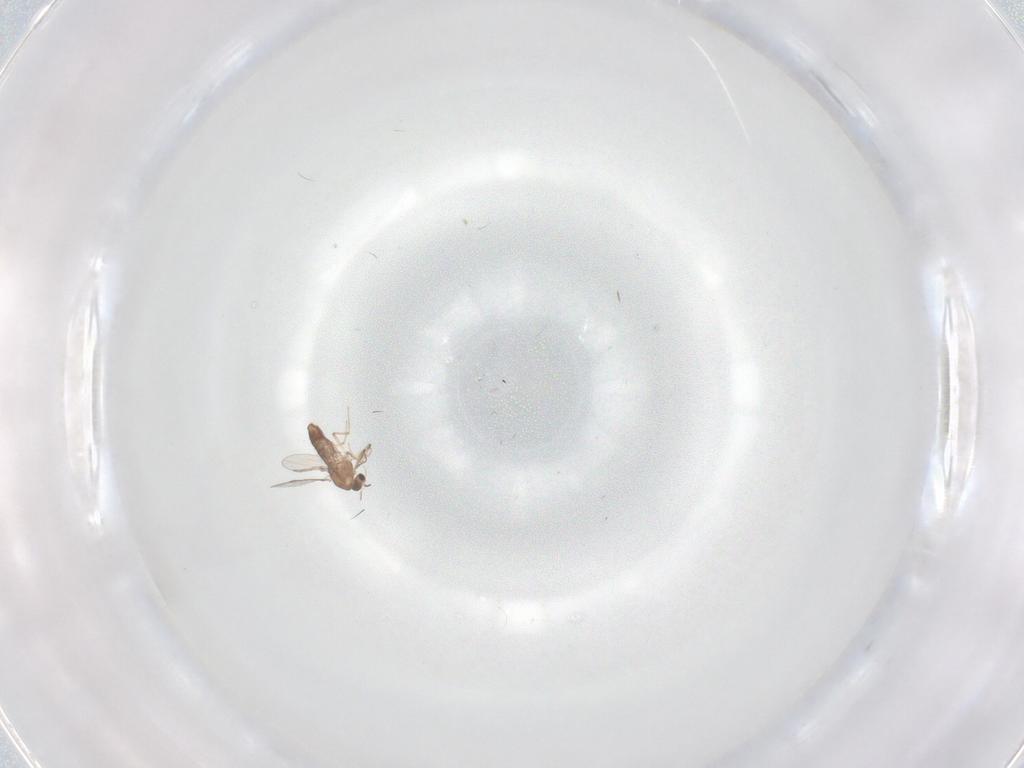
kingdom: Animalia
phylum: Arthropoda
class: Insecta
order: Diptera
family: Chironomidae
